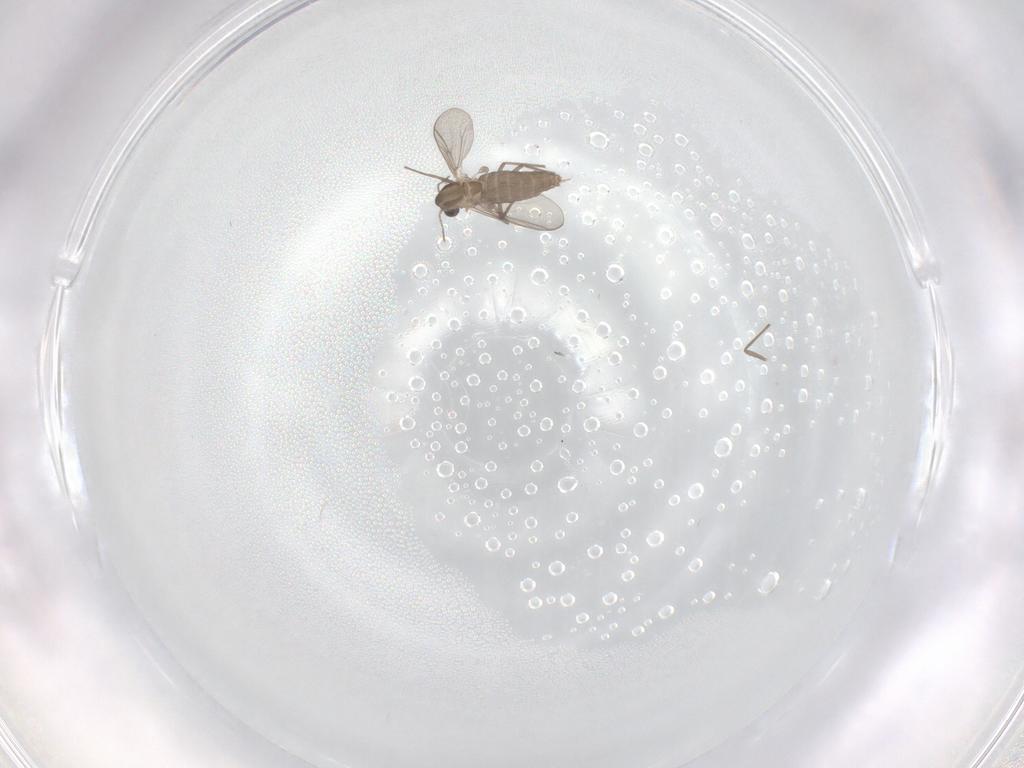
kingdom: Animalia
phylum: Arthropoda
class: Insecta
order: Diptera
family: Chironomidae
